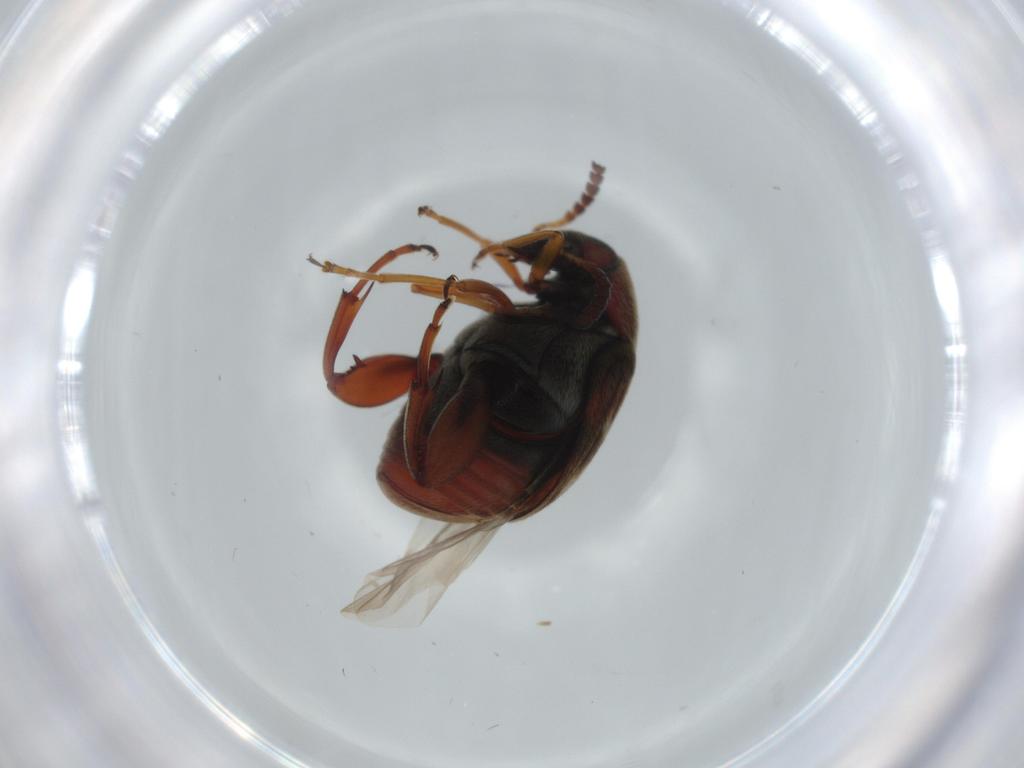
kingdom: Animalia
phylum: Arthropoda
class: Insecta
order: Coleoptera
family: Chrysomelidae
